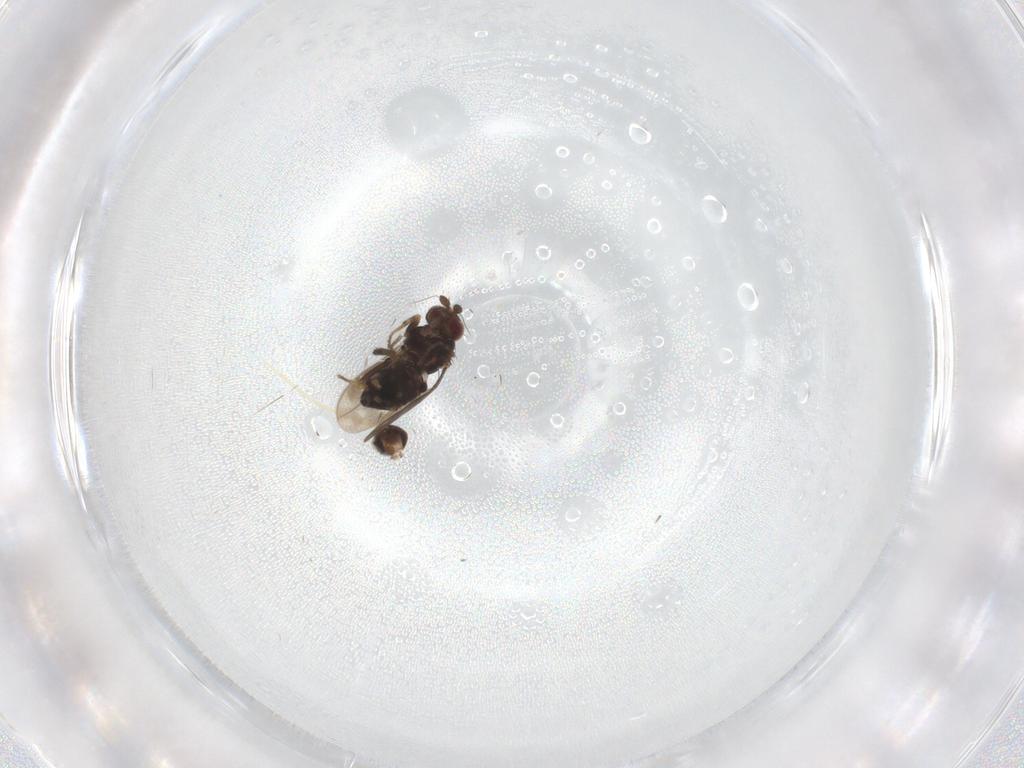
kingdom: Animalia
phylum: Arthropoda
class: Insecta
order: Diptera
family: Sphaeroceridae
